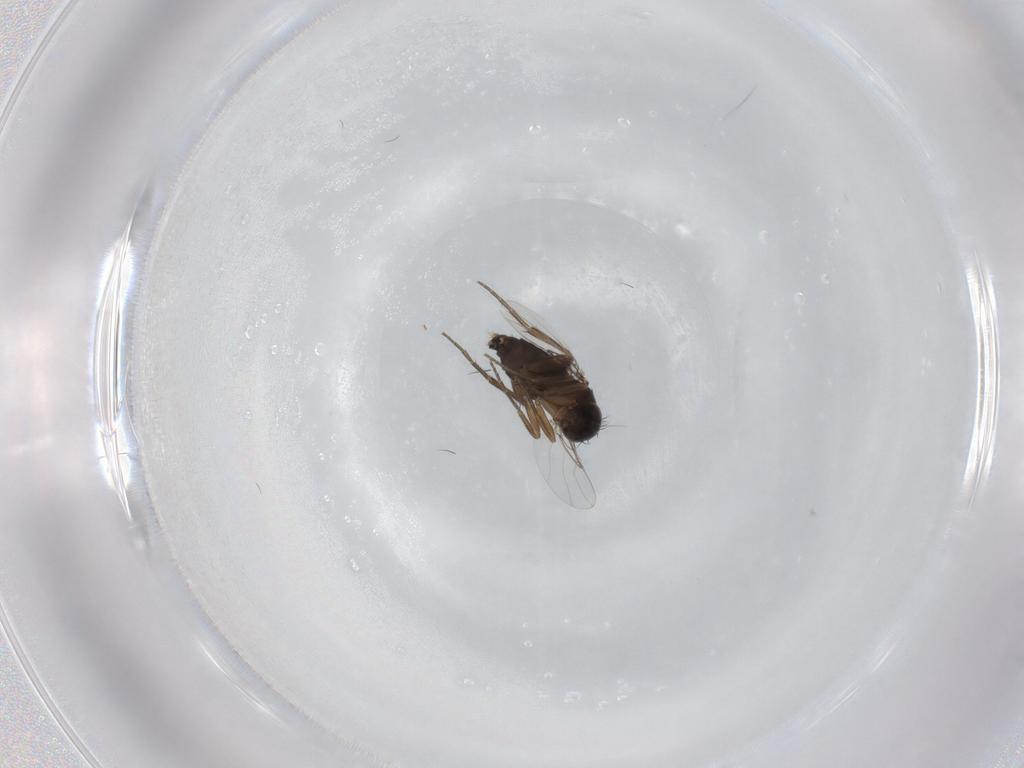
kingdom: Animalia
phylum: Arthropoda
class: Insecta
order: Diptera
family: Phoridae
